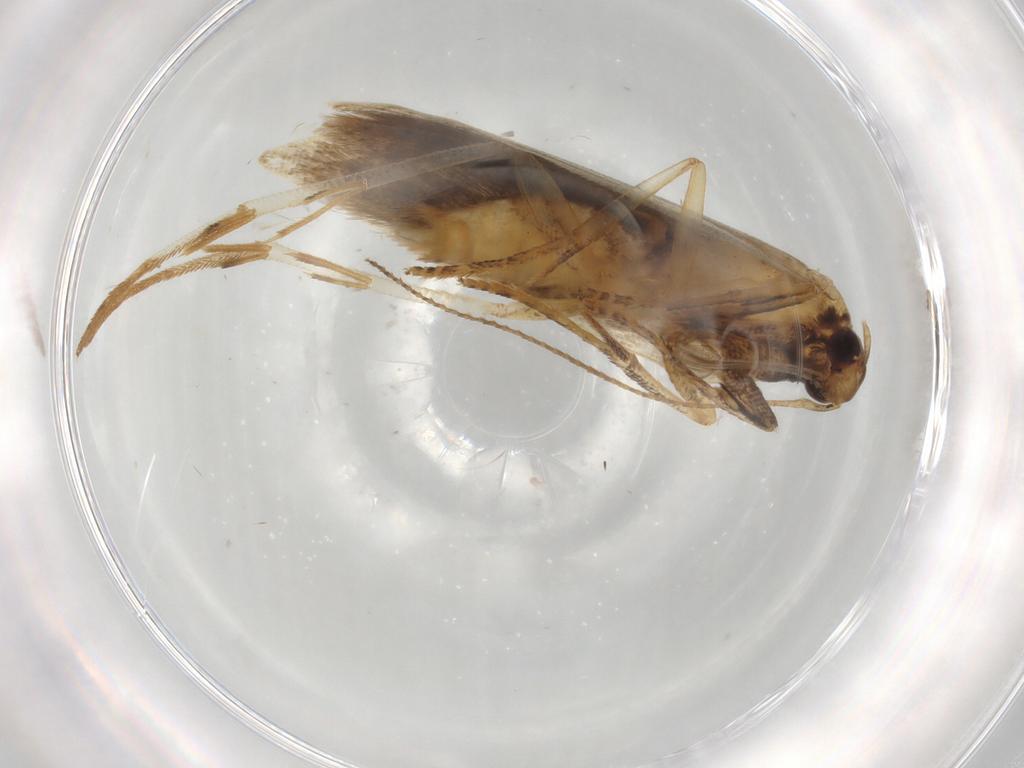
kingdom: Animalia
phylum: Arthropoda
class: Insecta
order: Lepidoptera
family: Gelechiidae
